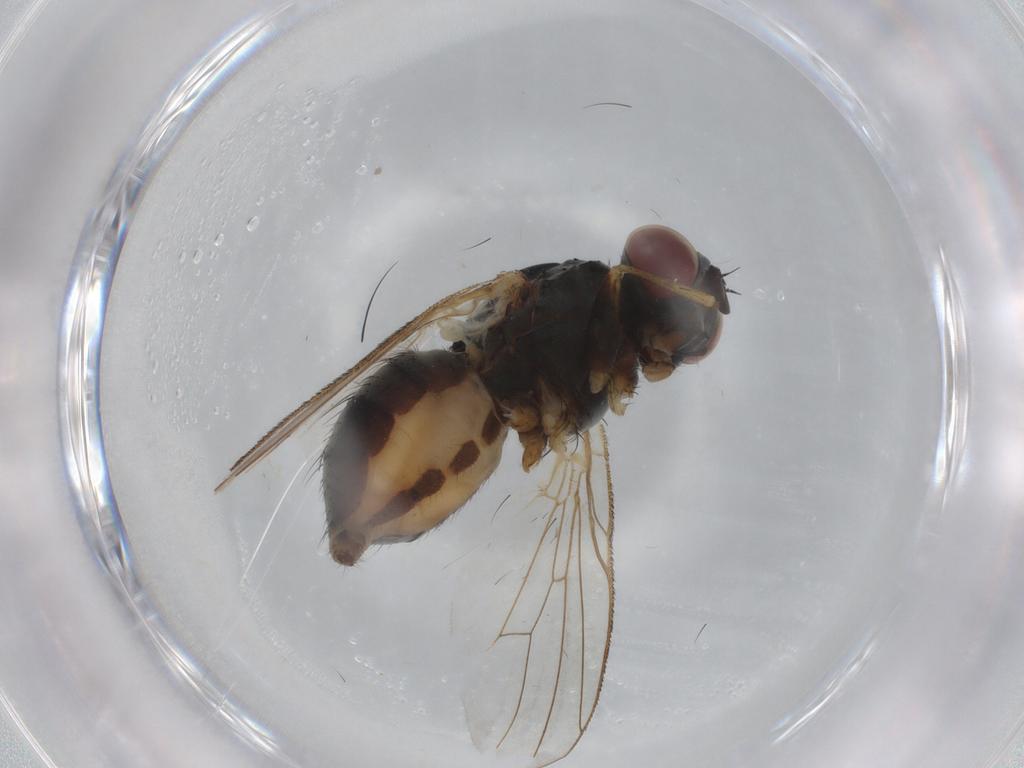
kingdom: Animalia
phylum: Arthropoda
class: Insecta
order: Diptera
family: Muscidae
